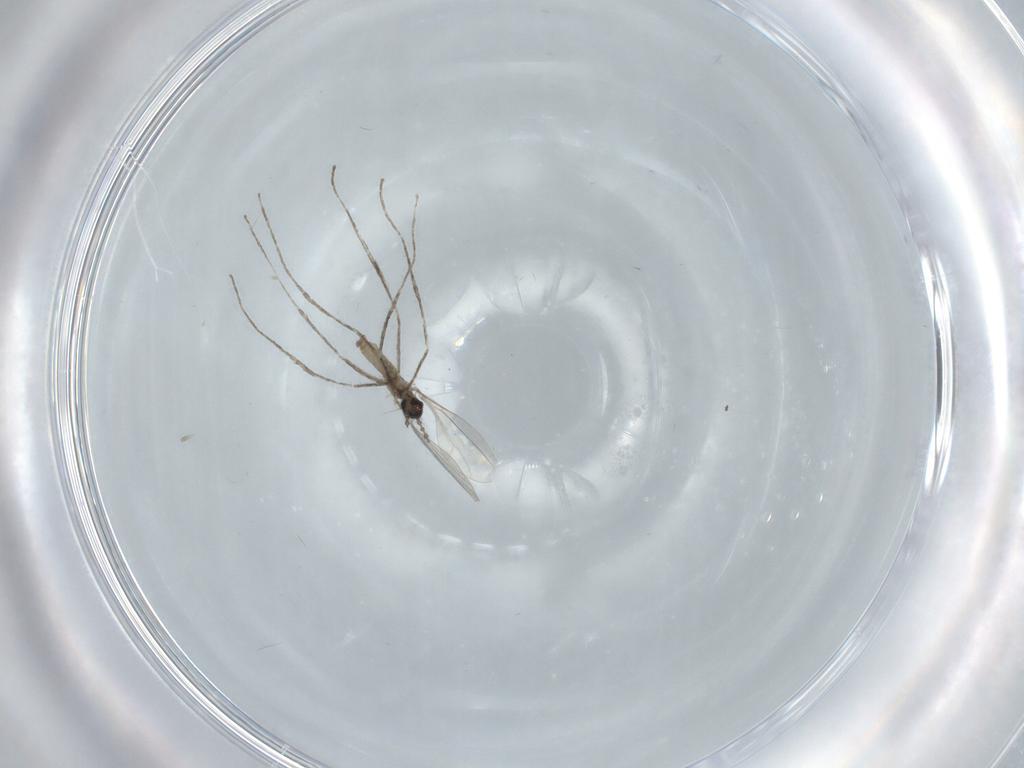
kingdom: Animalia
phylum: Arthropoda
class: Insecta
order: Diptera
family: Cecidomyiidae
